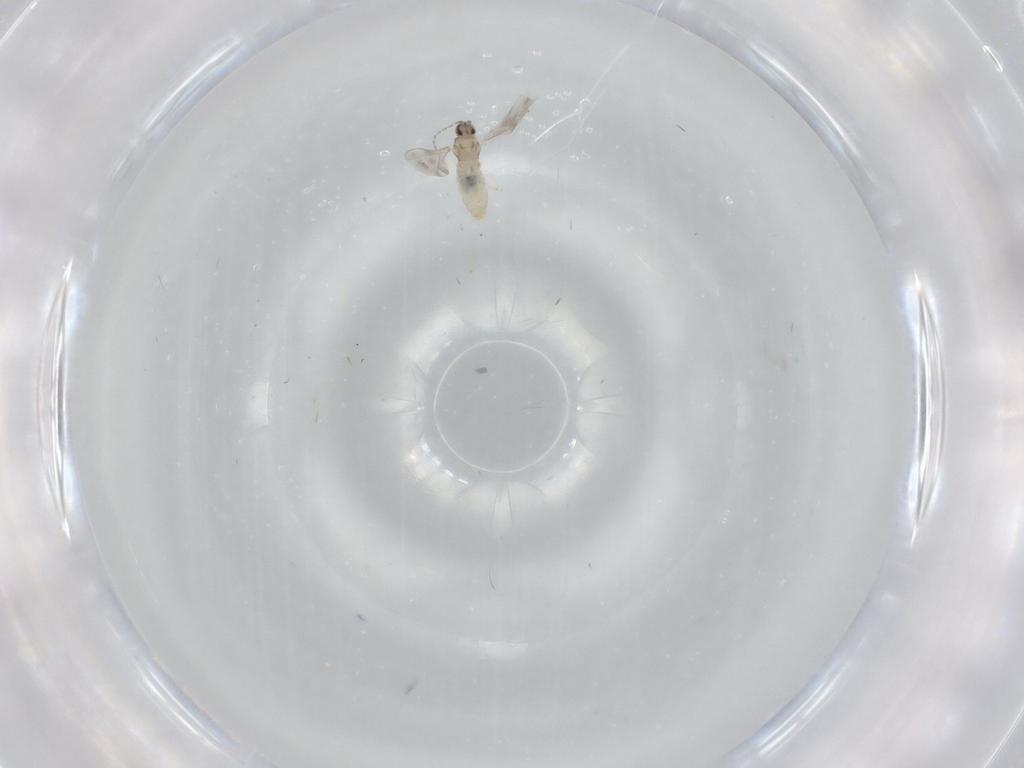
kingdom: Animalia
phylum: Arthropoda
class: Insecta
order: Diptera
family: Cecidomyiidae
